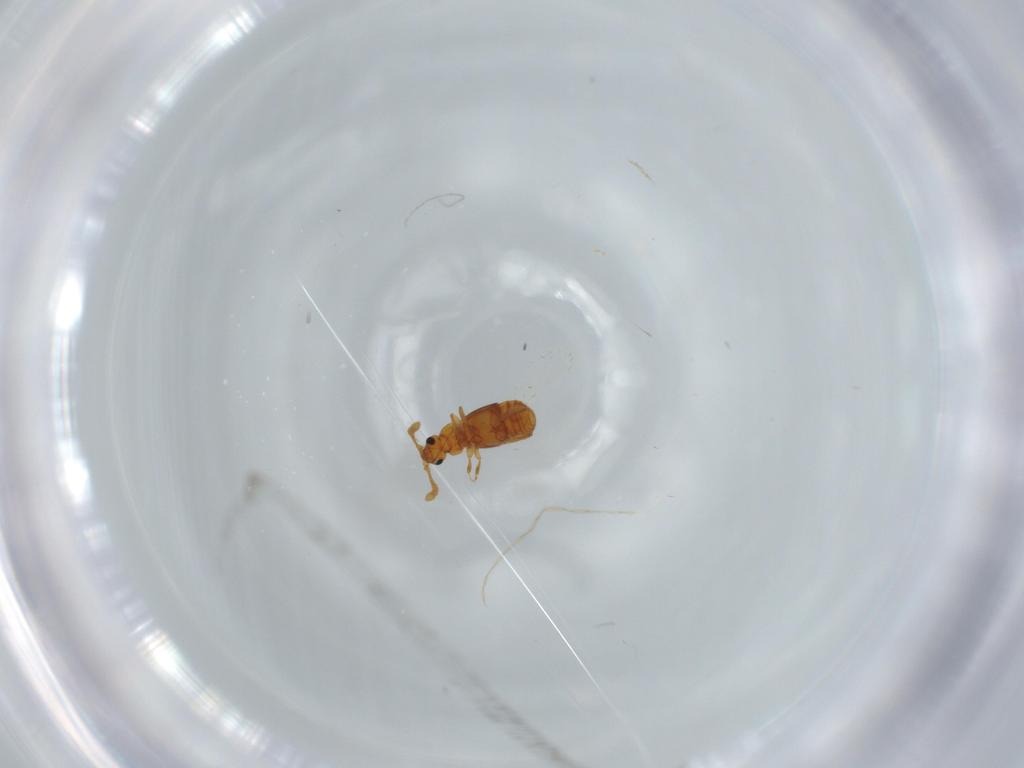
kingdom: Animalia
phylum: Arthropoda
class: Insecta
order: Coleoptera
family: Staphylinidae
